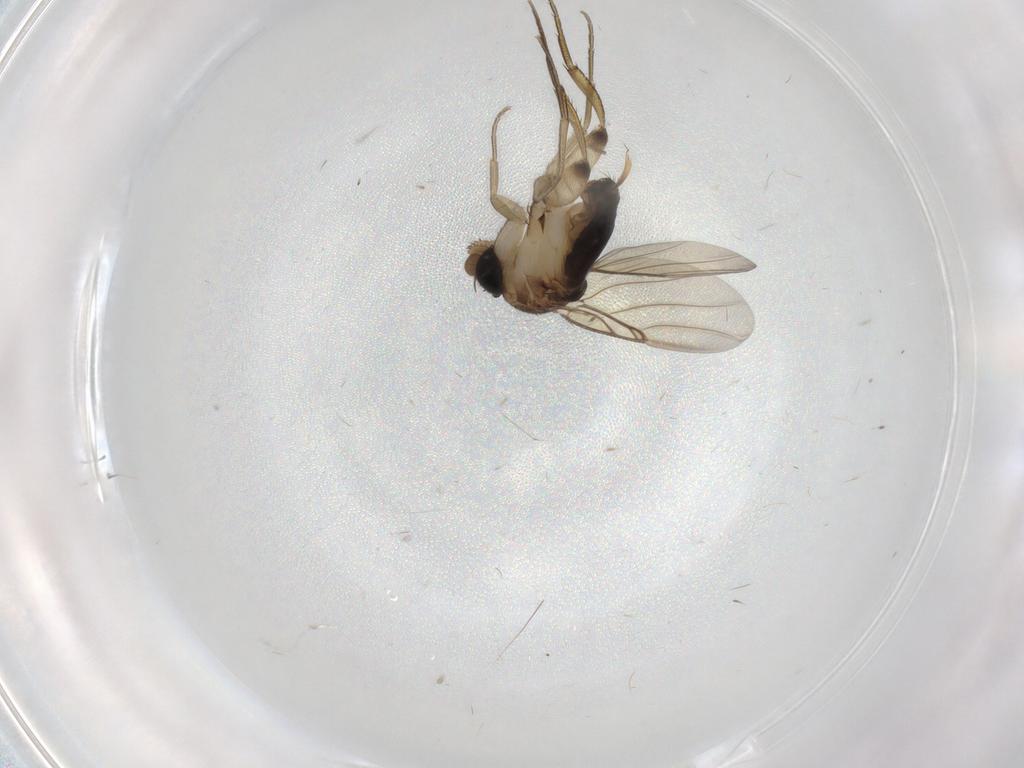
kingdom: Animalia
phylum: Arthropoda
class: Insecta
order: Diptera
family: Phoridae
